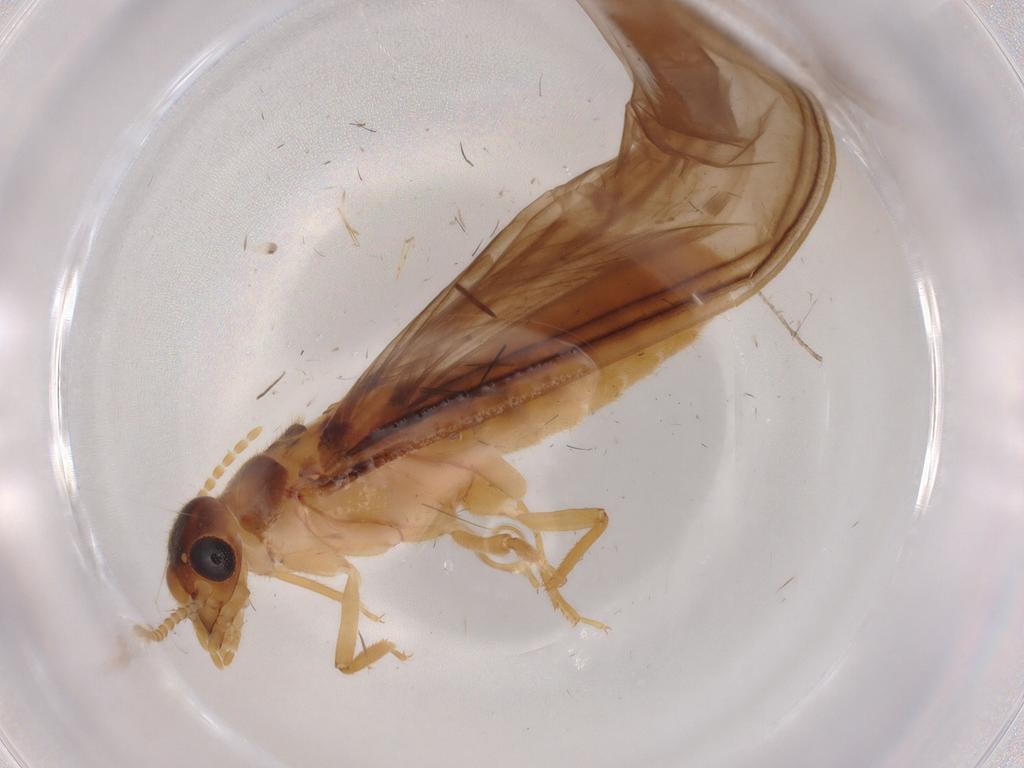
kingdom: Animalia
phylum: Arthropoda
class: Insecta
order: Blattodea
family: Termitidae
